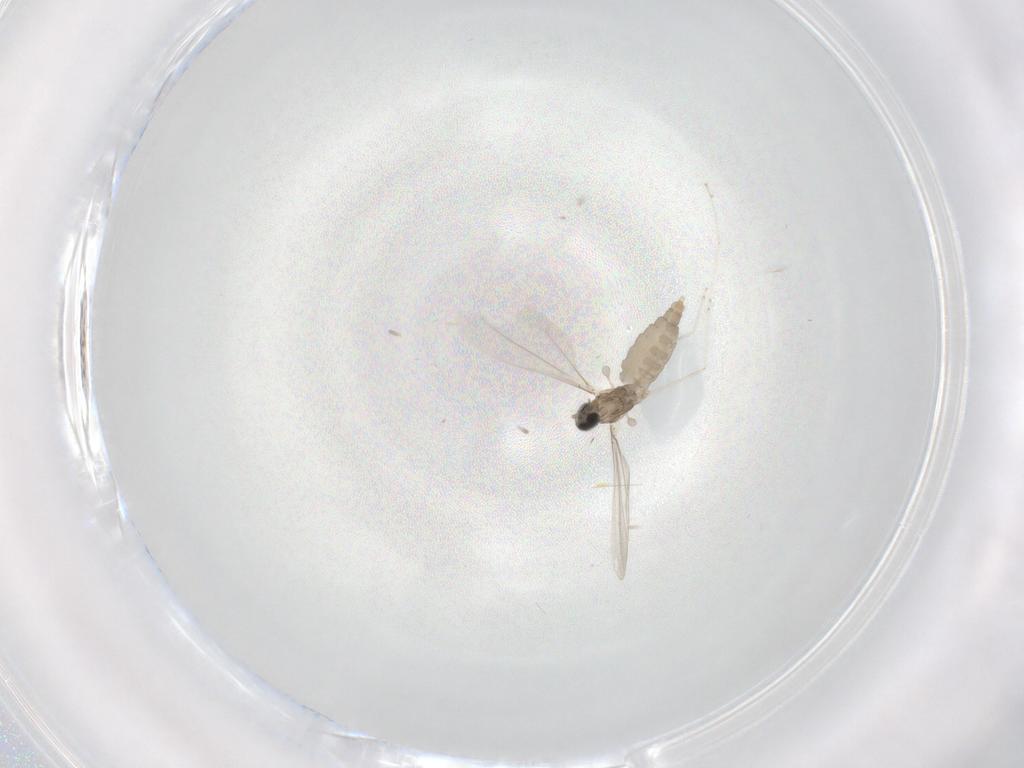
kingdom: Animalia
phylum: Arthropoda
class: Insecta
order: Diptera
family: Cecidomyiidae
